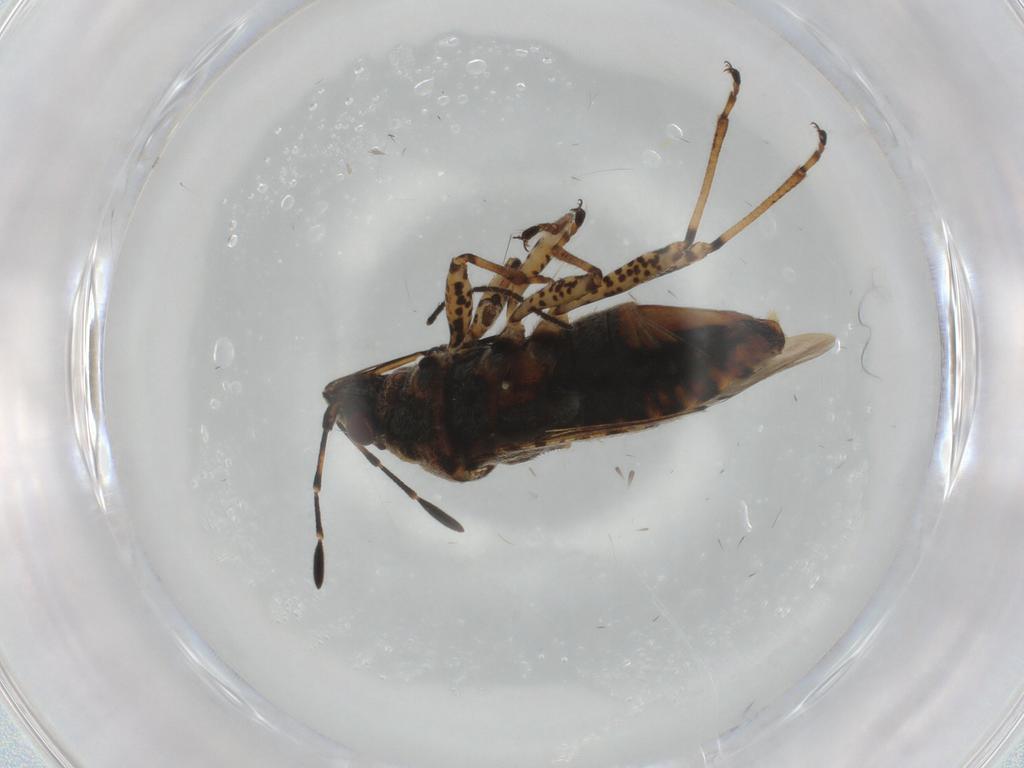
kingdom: Animalia
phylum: Arthropoda
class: Insecta
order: Hemiptera
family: Lygaeidae
